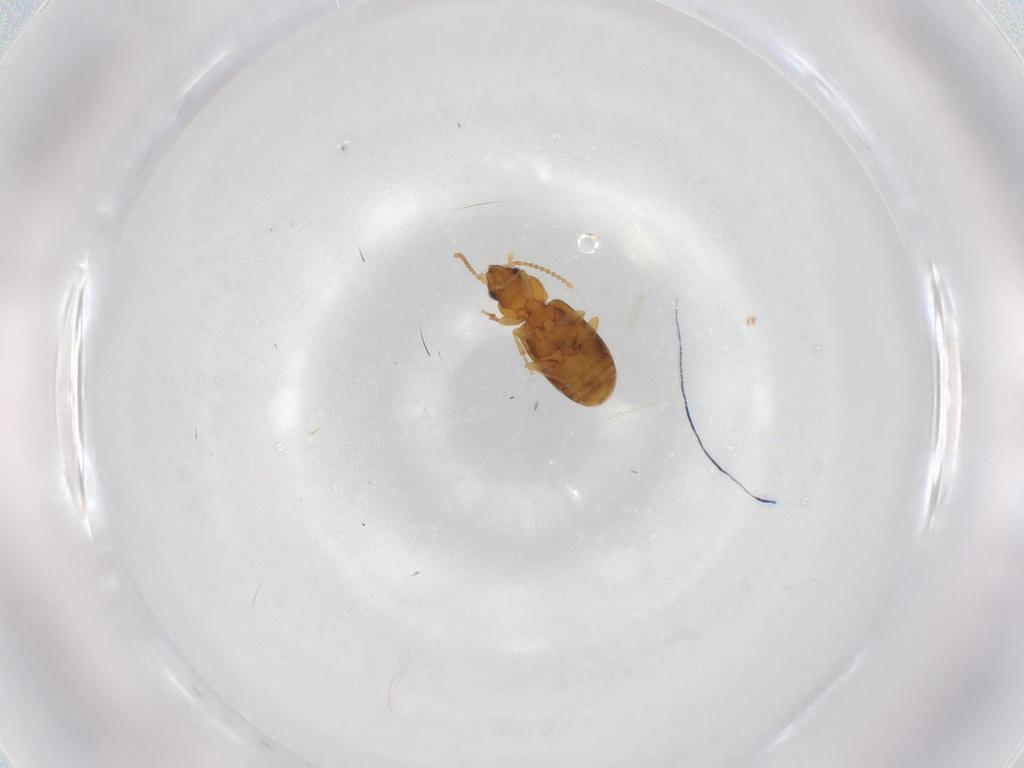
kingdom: Animalia
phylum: Arthropoda
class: Insecta
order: Coleoptera
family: Carabidae
